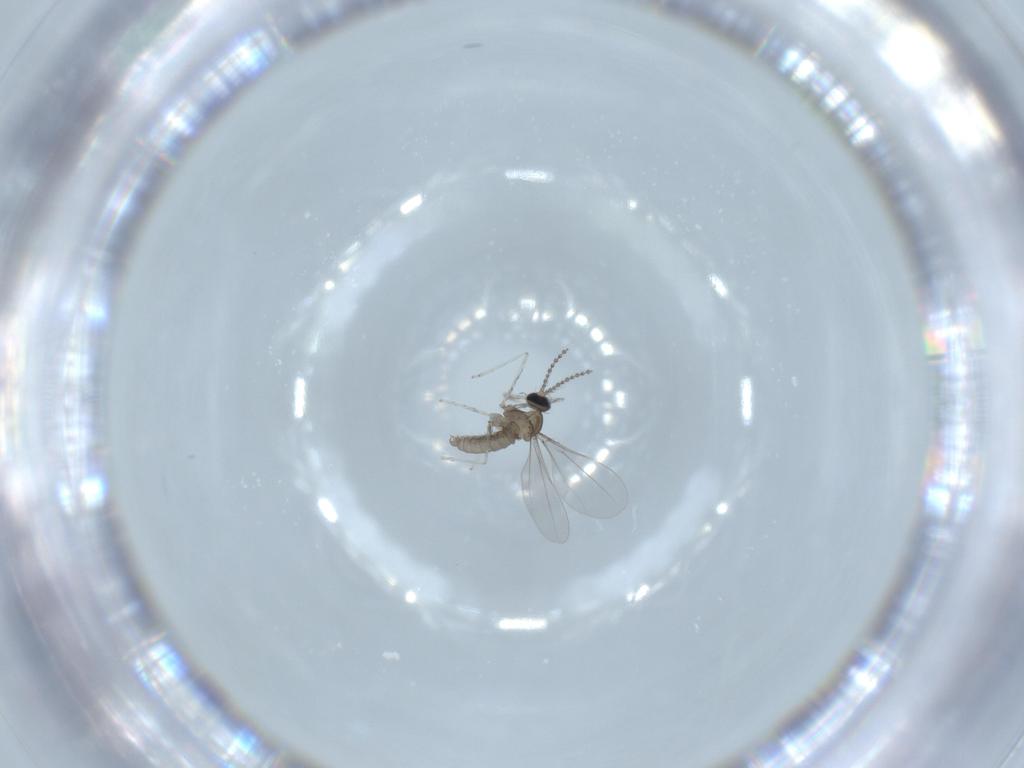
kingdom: Animalia
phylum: Arthropoda
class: Insecta
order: Diptera
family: Cecidomyiidae
